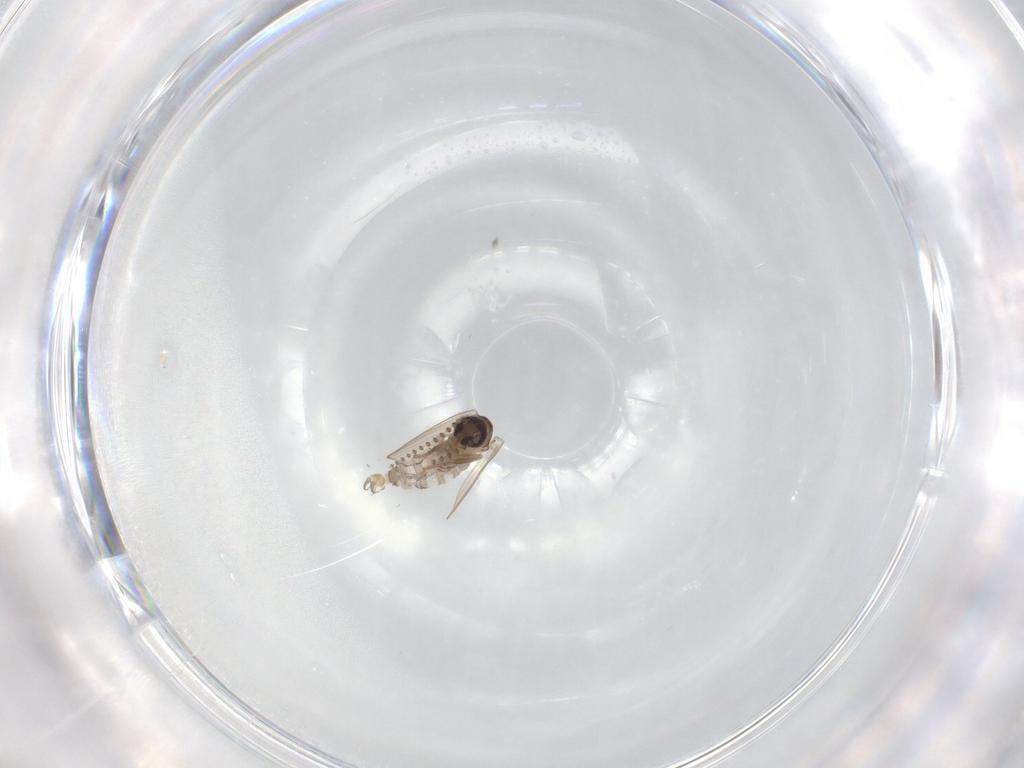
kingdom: Animalia
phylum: Arthropoda
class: Insecta
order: Diptera
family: Psychodidae
